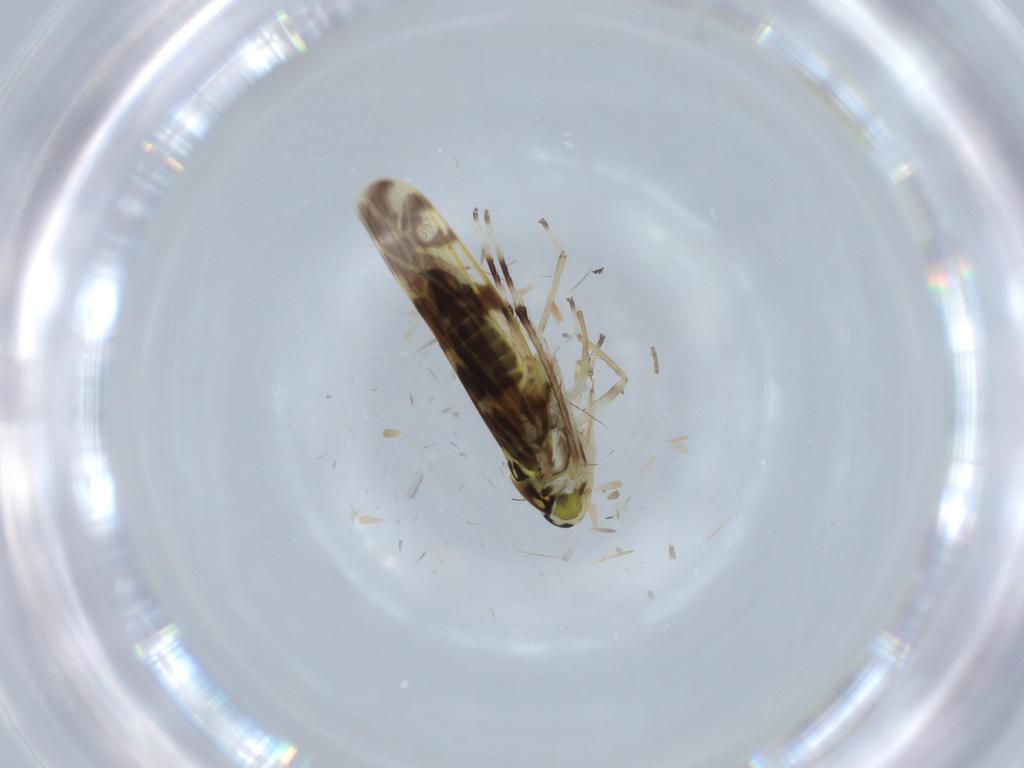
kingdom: Animalia
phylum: Arthropoda
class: Insecta
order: Hemiptera
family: Cicadellidae
